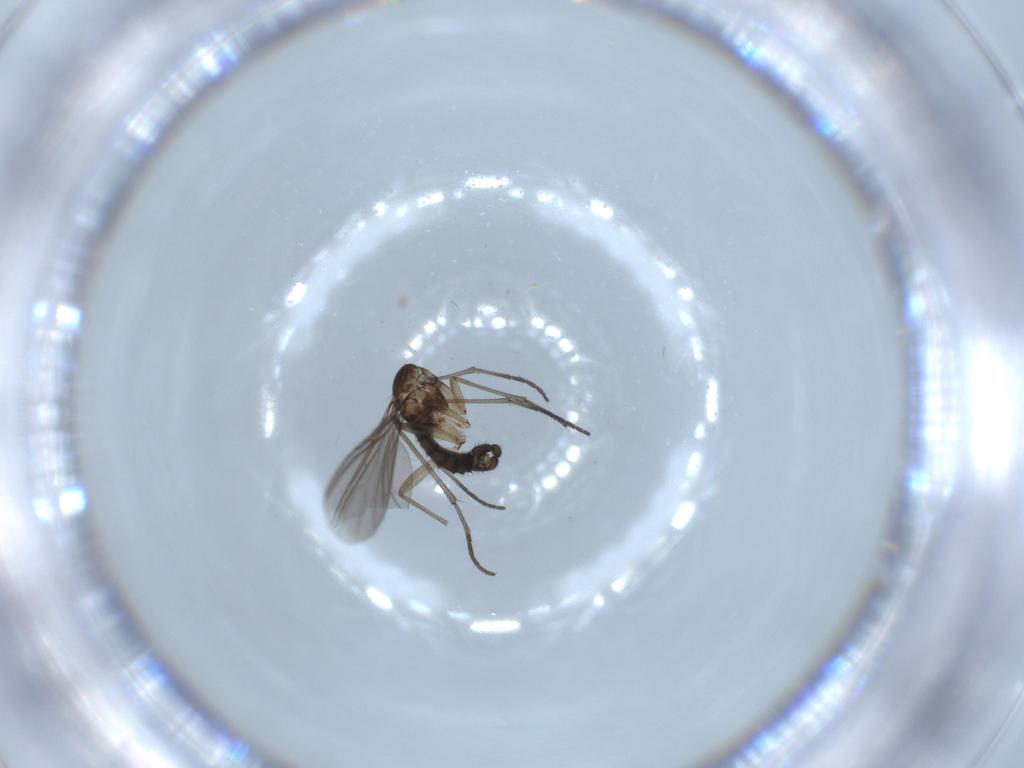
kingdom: Animalia
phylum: Arthropoda
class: Insecta
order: Diptera
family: Sciaridae
